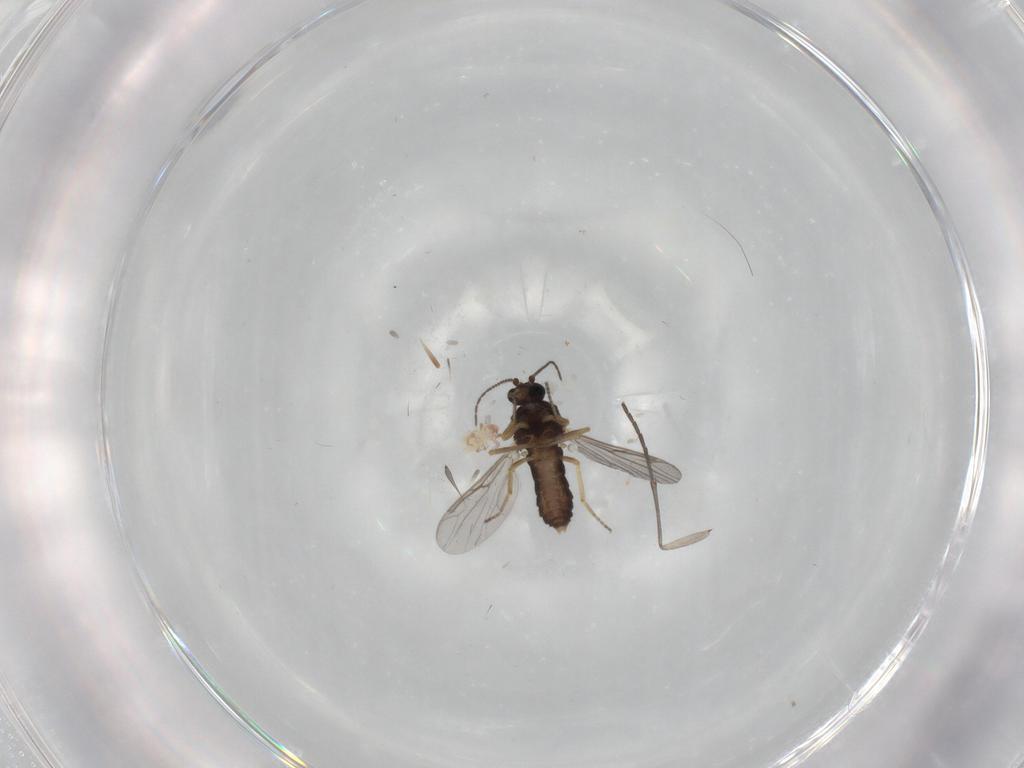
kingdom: Animalia
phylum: Arthropoda
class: Insecta
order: Diptera
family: Ceratopogonidae
